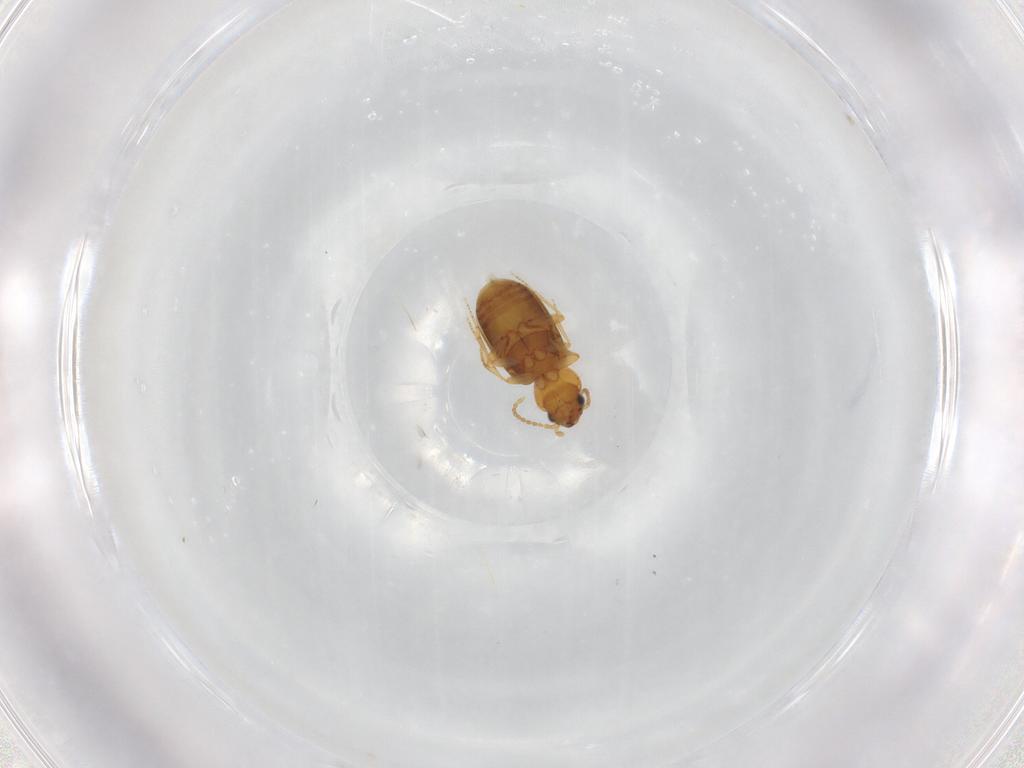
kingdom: Animalia
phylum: Arthropoda
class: Insecta
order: Coleoptera
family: Carabidae
